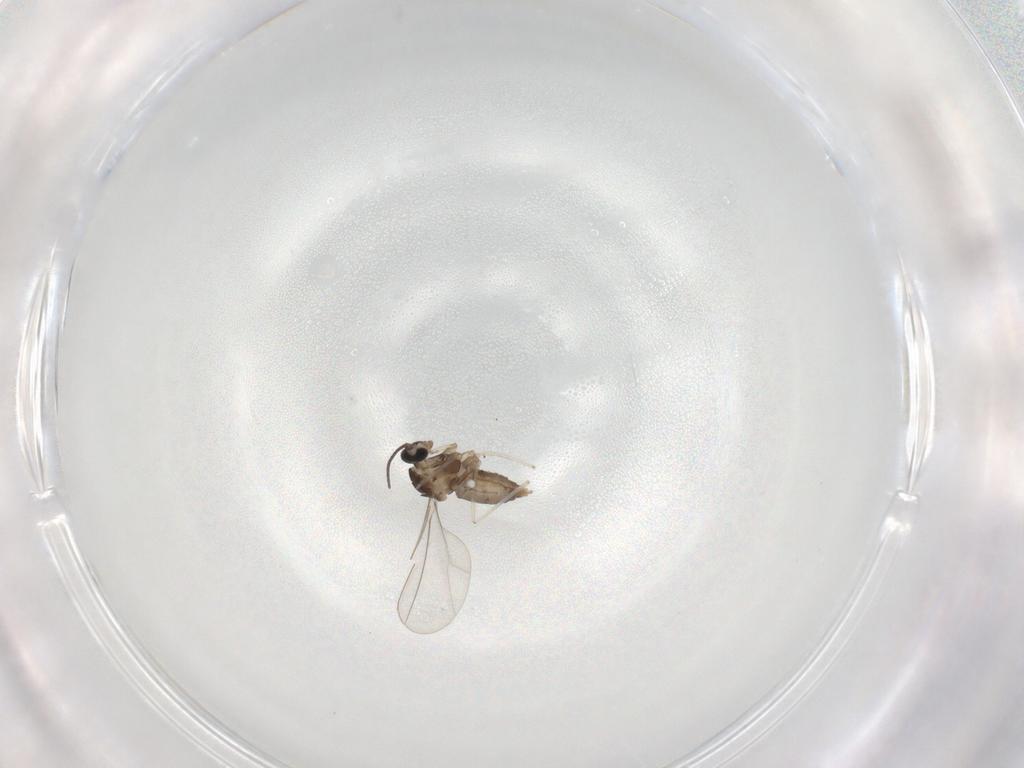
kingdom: Animalia
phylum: Arthropoda
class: Insecta
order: Diptera
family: Cecidomyiidae
